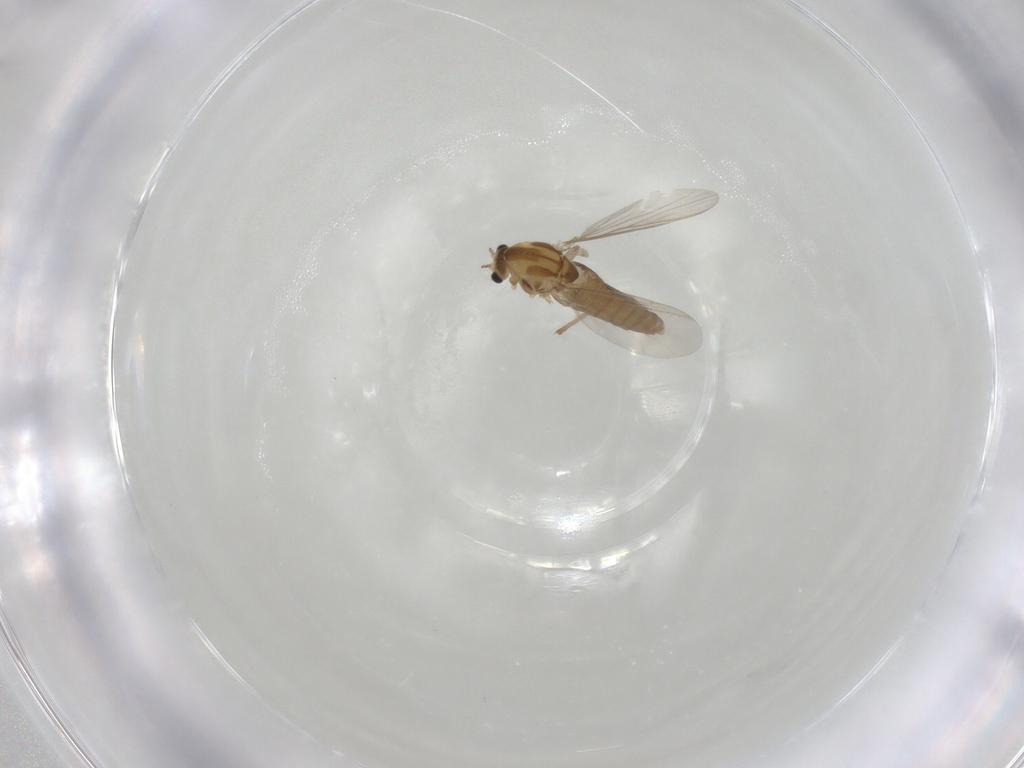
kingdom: Animalia
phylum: Arthropoda
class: Insecta
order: Diptera
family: Chironomidae
